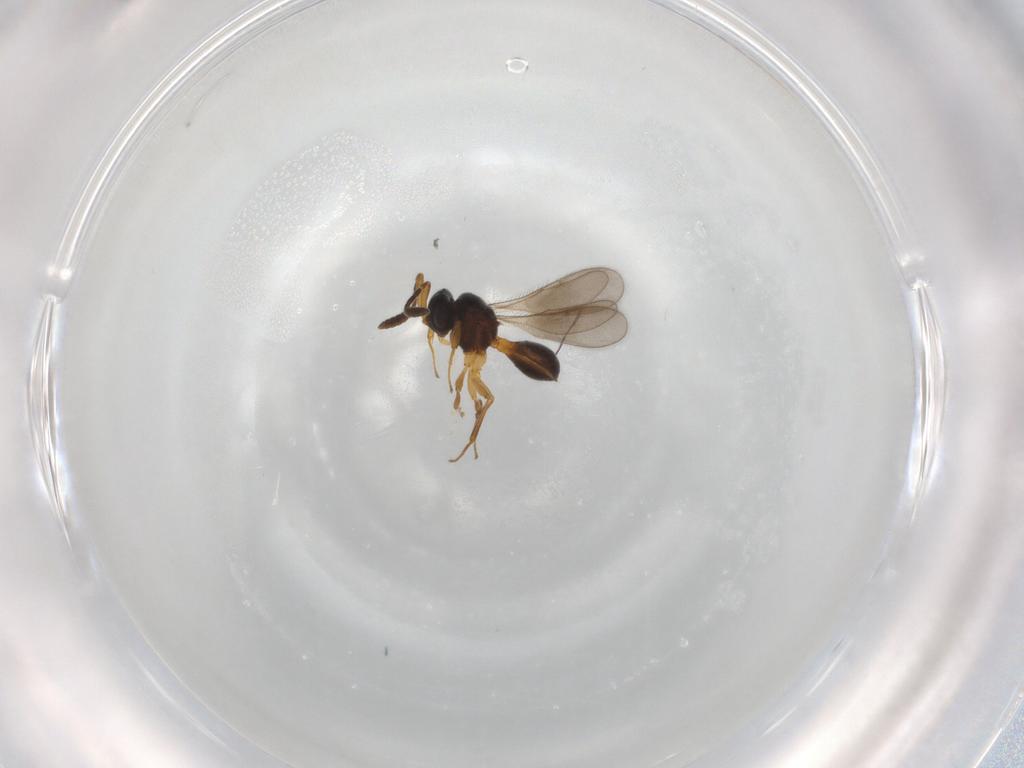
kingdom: Animalia
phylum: Arthropoda
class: Insecta
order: Hymenoptera
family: Scelionidae
